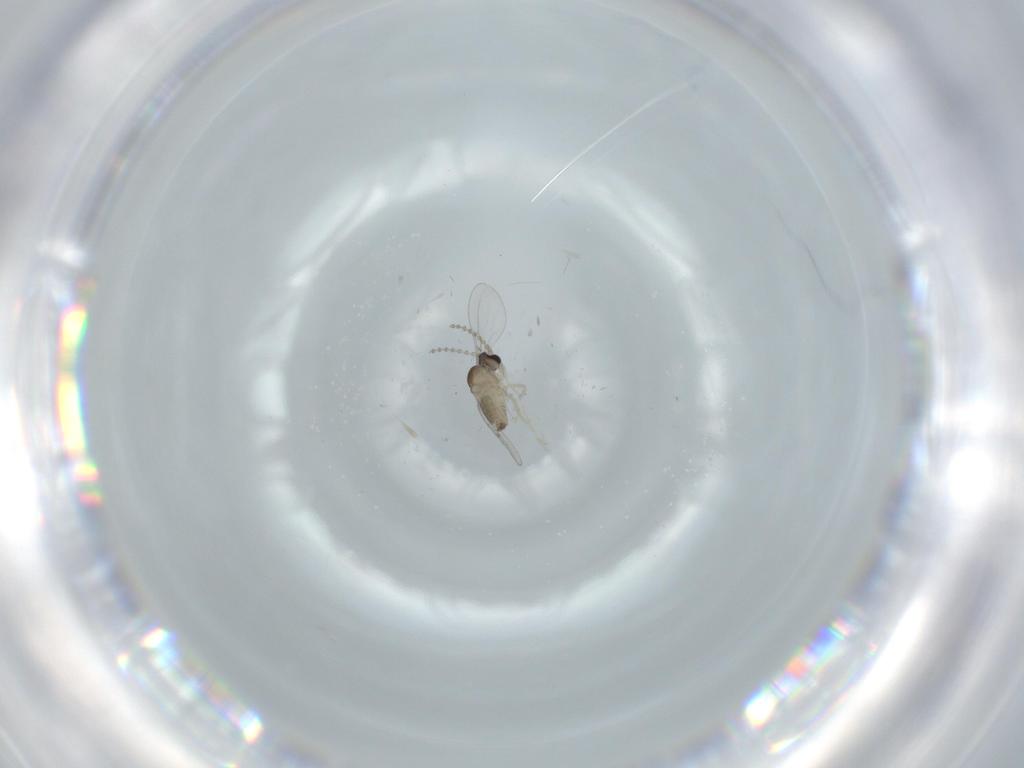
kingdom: Animalia
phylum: Arthropoda
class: Insecta
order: Diptera
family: Cecidomyiidae
